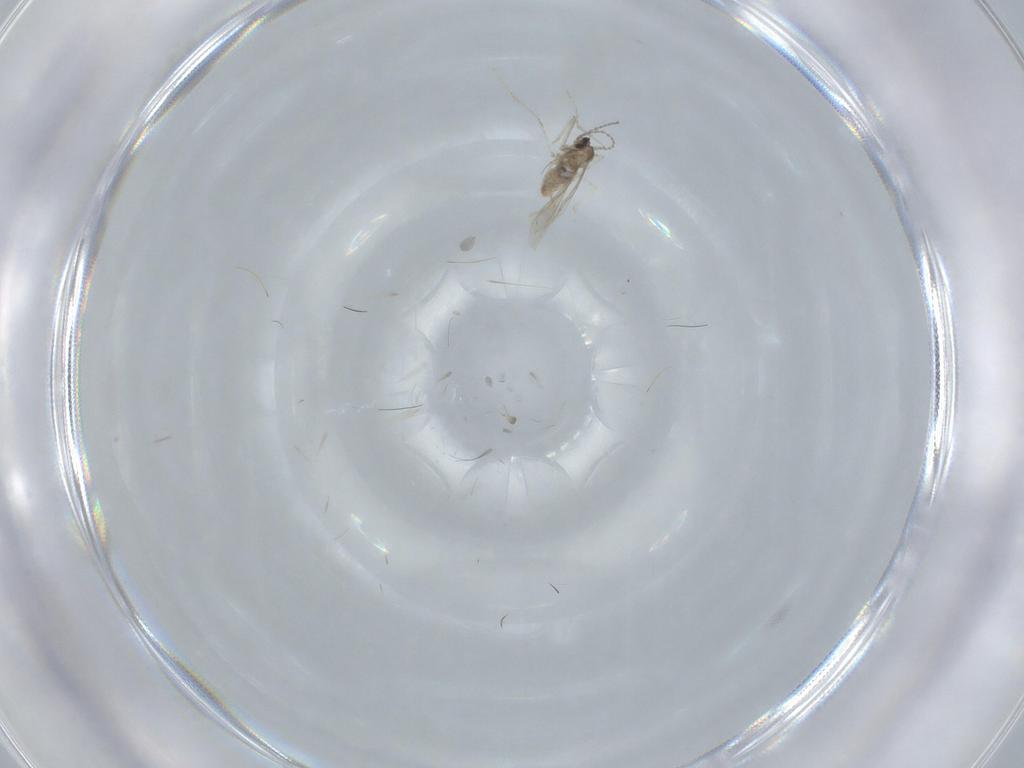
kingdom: Animalia
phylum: Arthropoda
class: Insecta
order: Diptera
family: Cecidomyiidae
